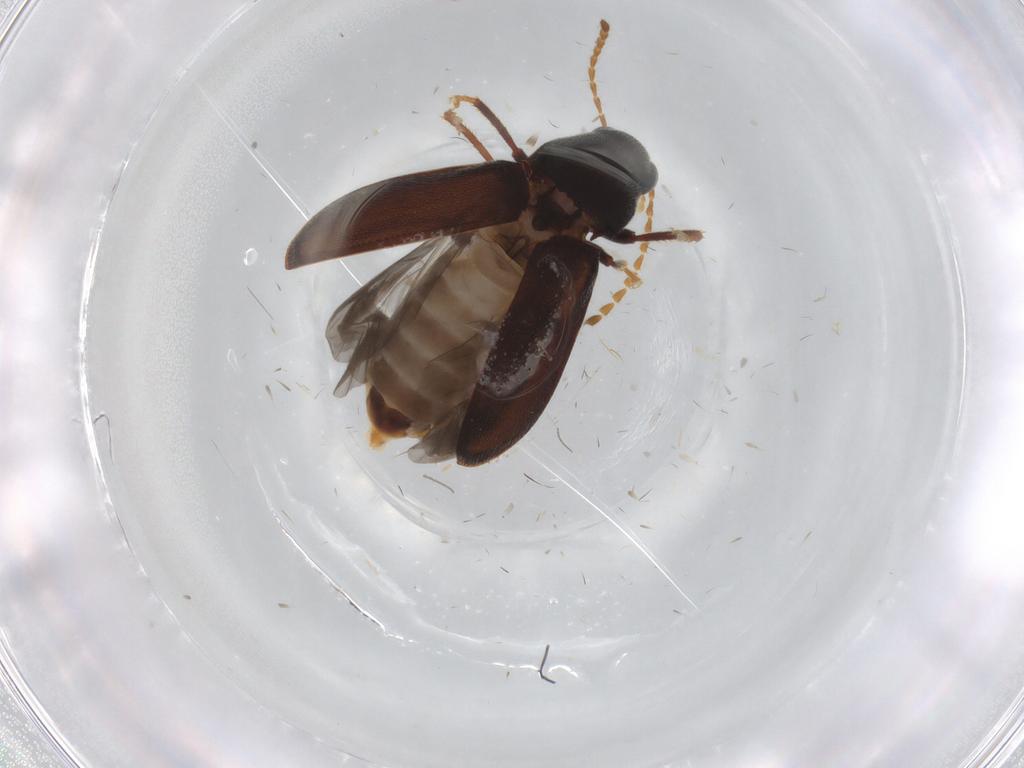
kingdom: Animalia
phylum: Arthropoda
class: Insecta
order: Coleoptera
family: Ptilodactylidae
